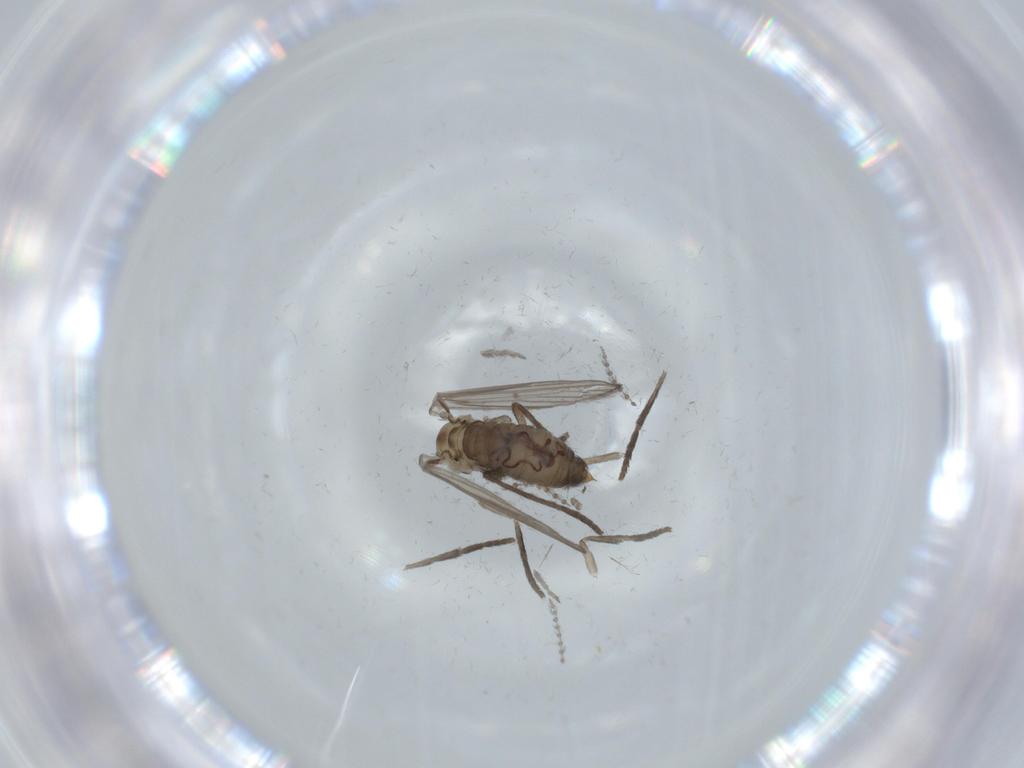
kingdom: Animalia
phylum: Arthropoda
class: Insecta
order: Diptera
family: Psychodidae
